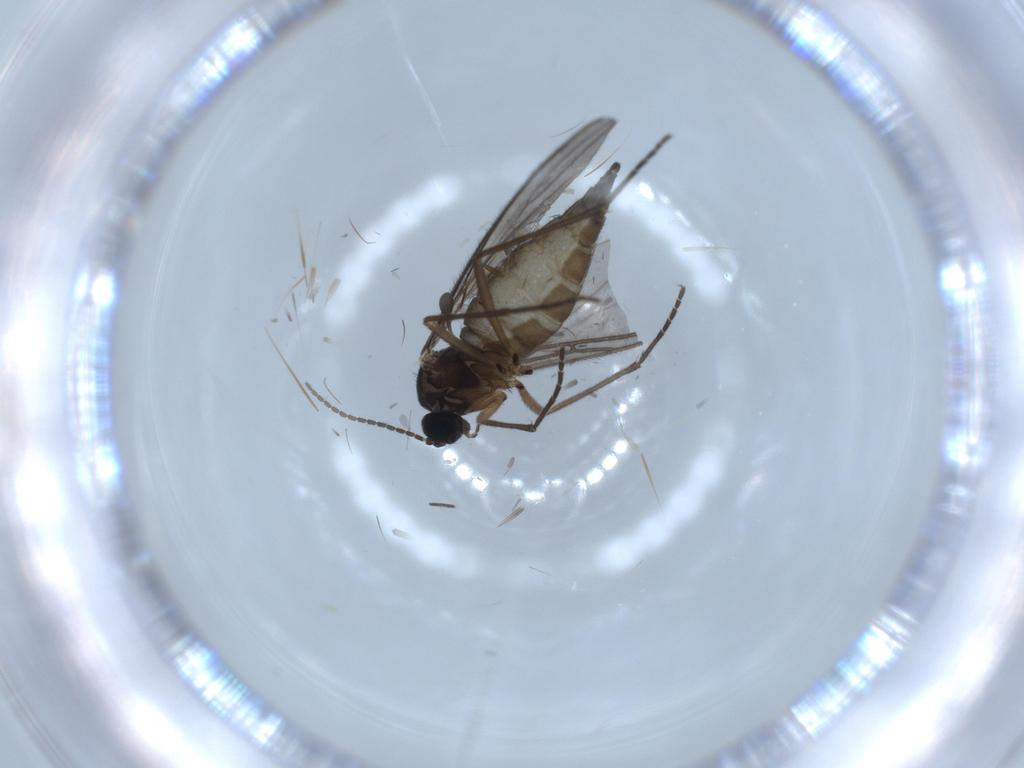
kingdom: Animalia
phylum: Arthropoda
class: Insecta
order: Diptera
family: Sciaridae
